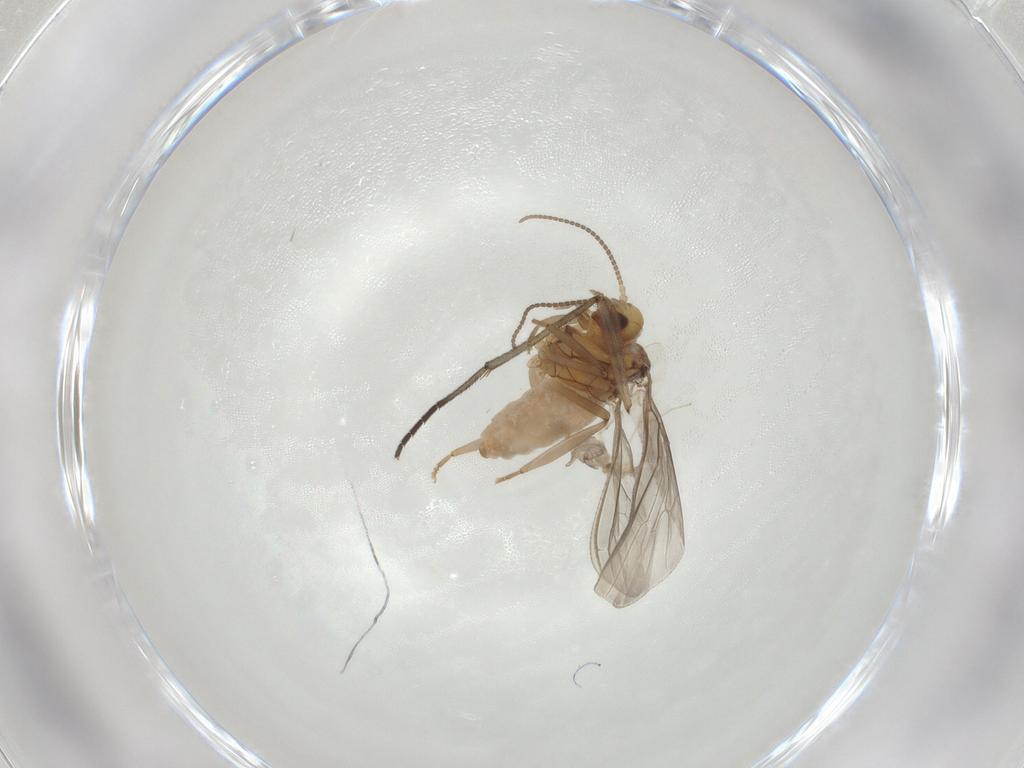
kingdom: Animalia
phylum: Arthropoda
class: Insecta
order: Neuroptera
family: Coniopterygidae
